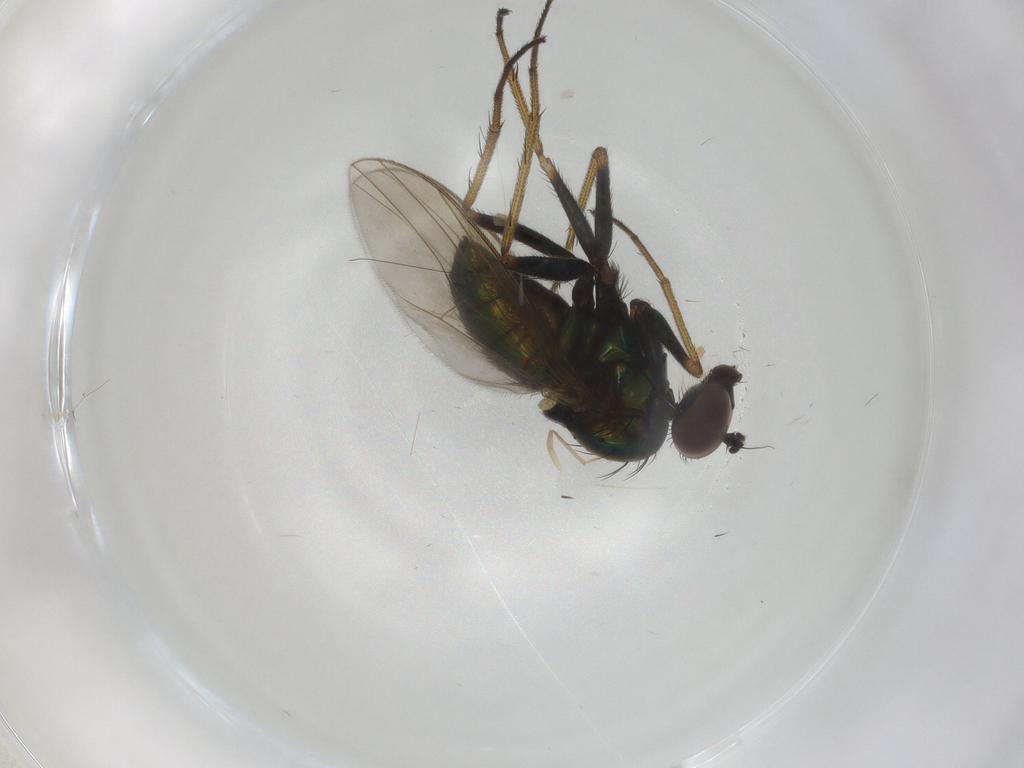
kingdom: Animalia
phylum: Arthropoda
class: Insecta
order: Diptera
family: Dolichopodidae
